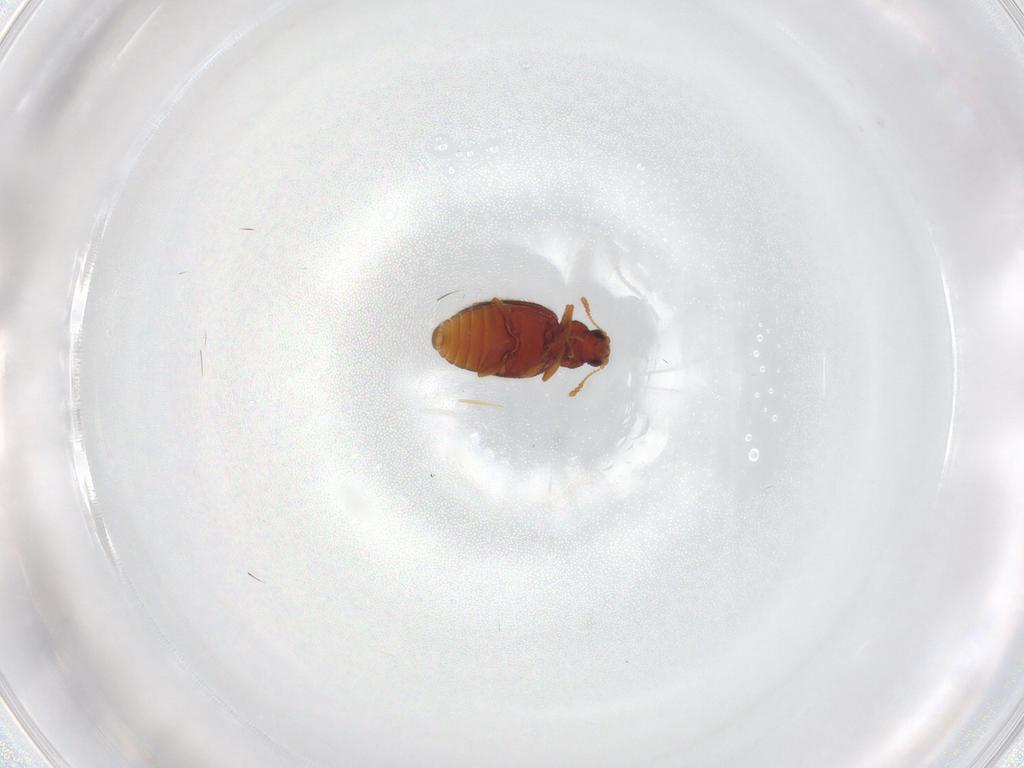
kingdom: Animalia
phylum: Arthropoda
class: Insecta
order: Coleoptera
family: Latridiidae
